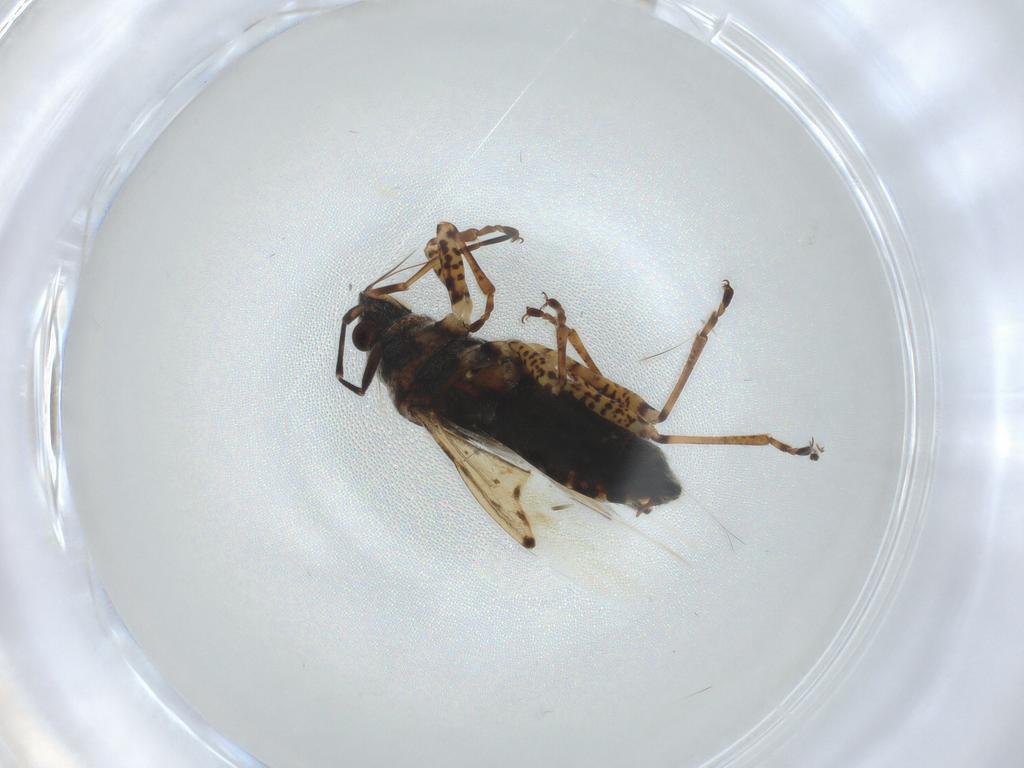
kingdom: Animalia
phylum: Arthropoda
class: Insecta
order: Hemiptera
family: Lygaeidae
